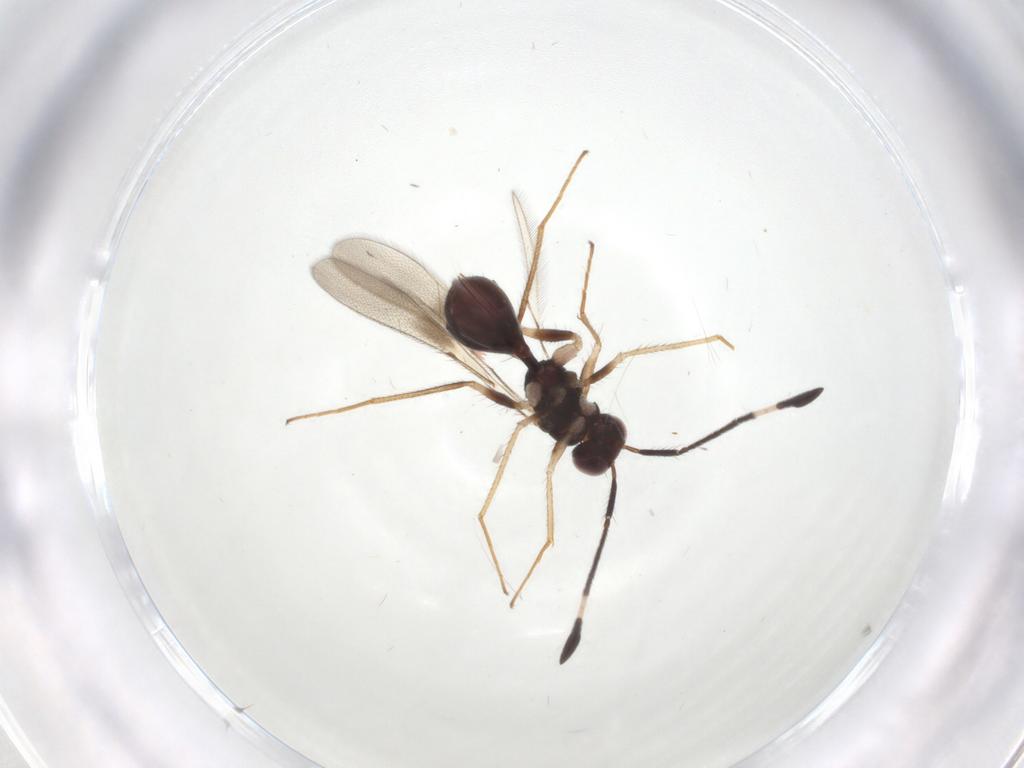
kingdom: Animalia
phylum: Arthropoda
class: Insecta
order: Hymenoptera
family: Mymaridae
